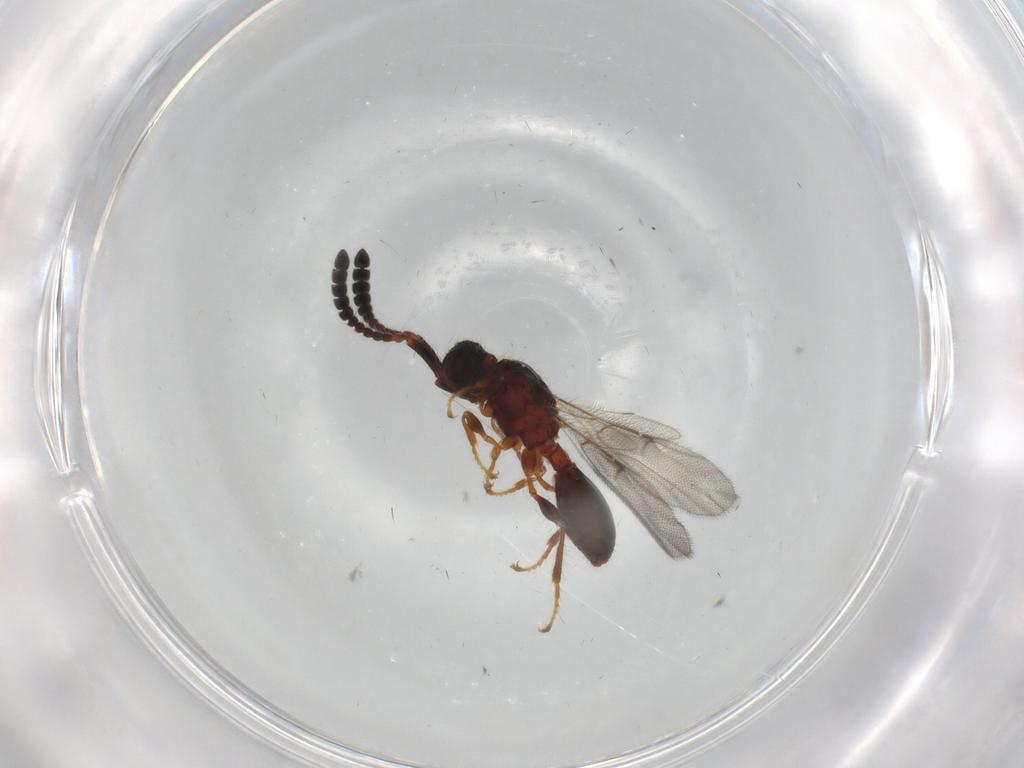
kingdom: Animalia
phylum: Arthropoda
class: Insecta
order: Hymenoptera
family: Diapriidae
